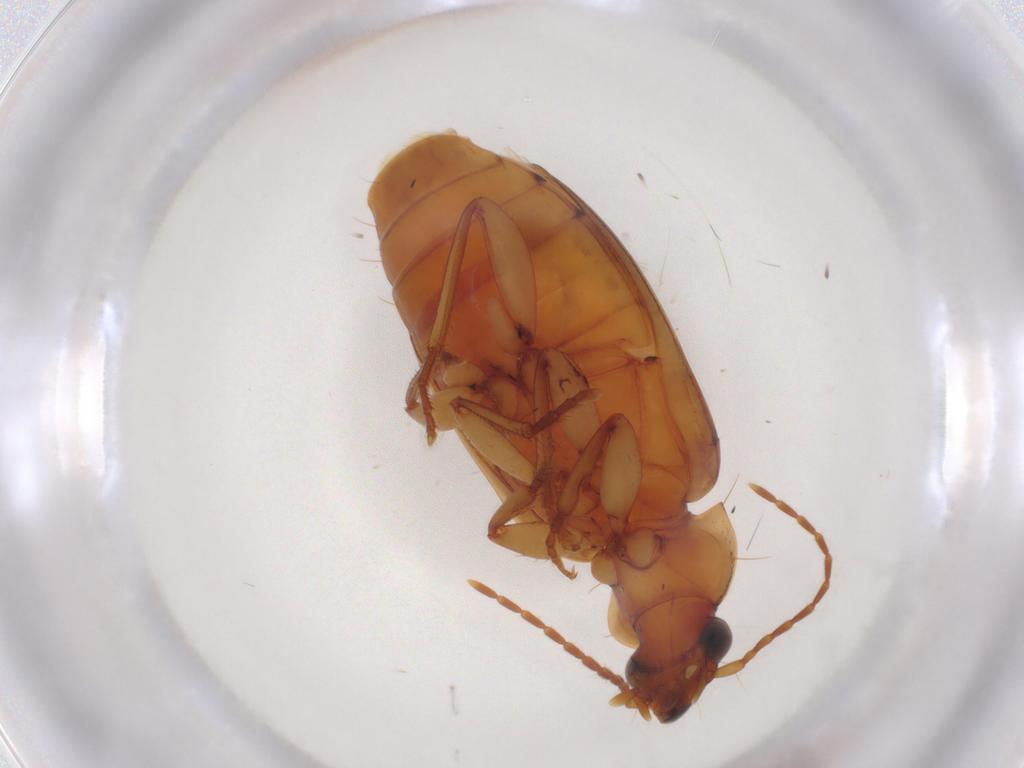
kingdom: Animalia
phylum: Arthropoda
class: Insecta
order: Coleoptera
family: Carabidae
